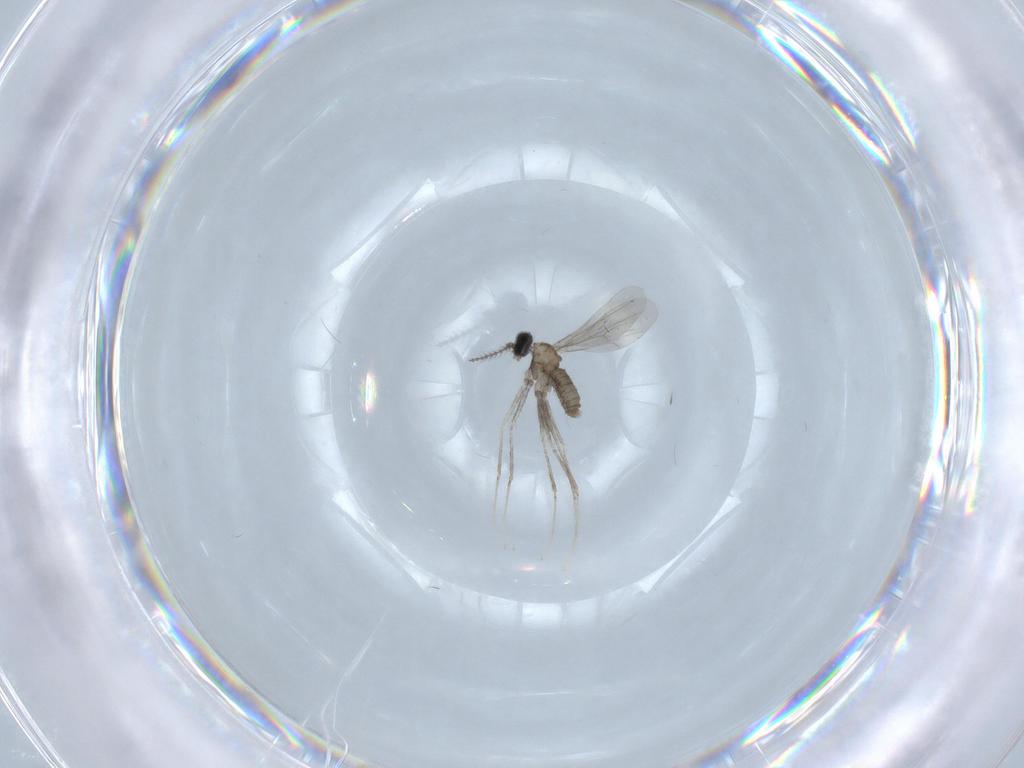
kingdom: Animalia
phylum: Arthropoda
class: Insecta
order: Diptera
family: Cecidomyiidae
